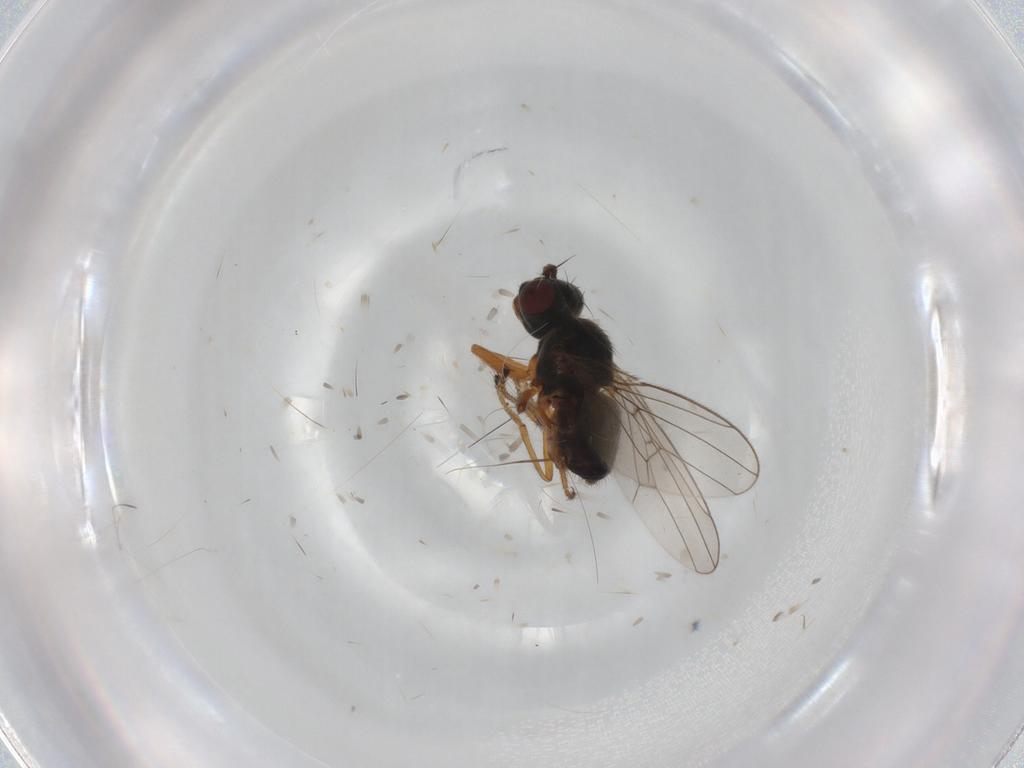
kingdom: Animalia
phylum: Arthropoda
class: Insecta
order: Diptera
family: Ephydridae
